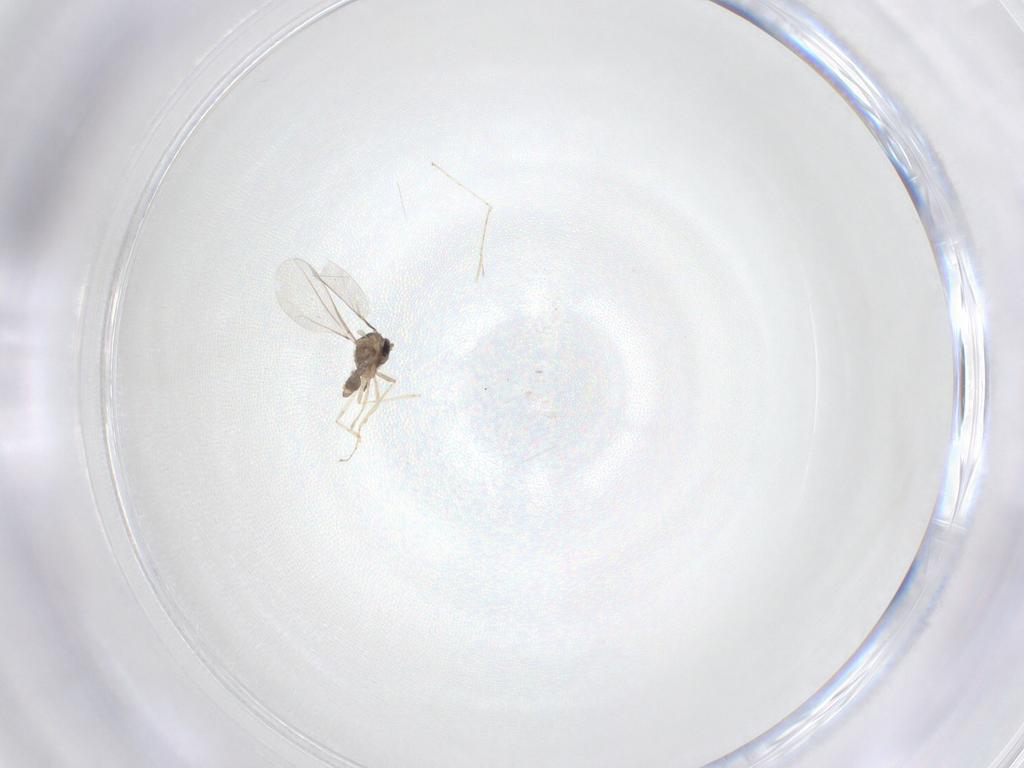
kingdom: Animalia
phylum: Arthropoda
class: Insecta
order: Diptera
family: Cecidomyiidae
